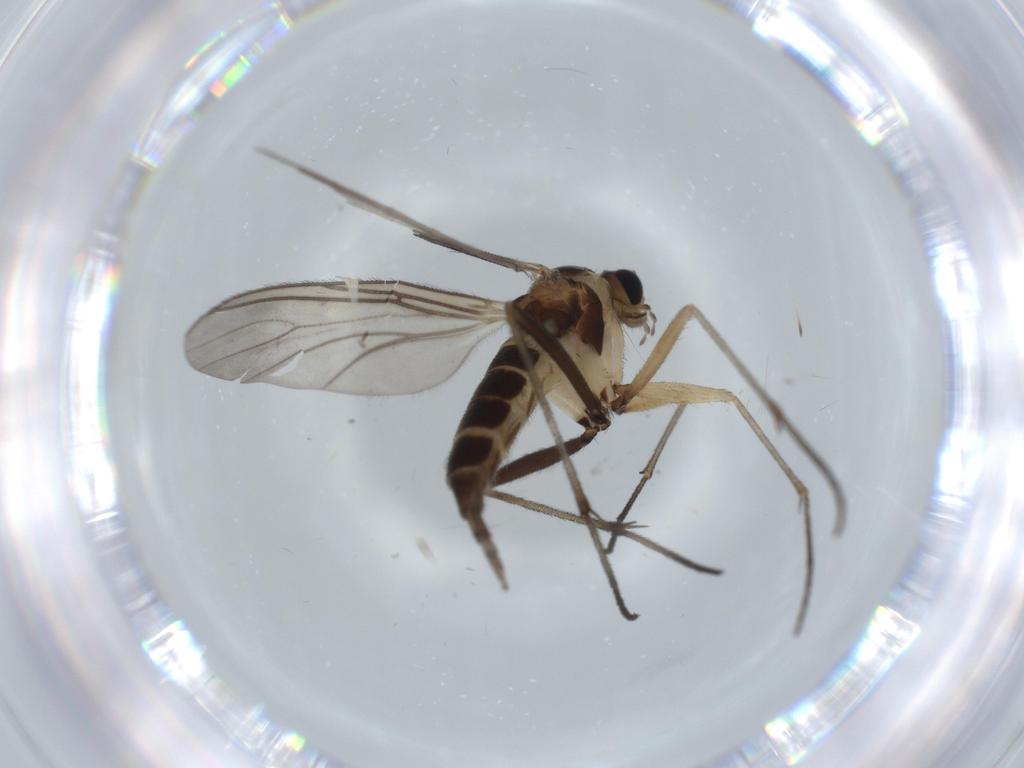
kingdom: Animalia
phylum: Arthropoda
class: Insecta
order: Diptera
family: Sciaridae
